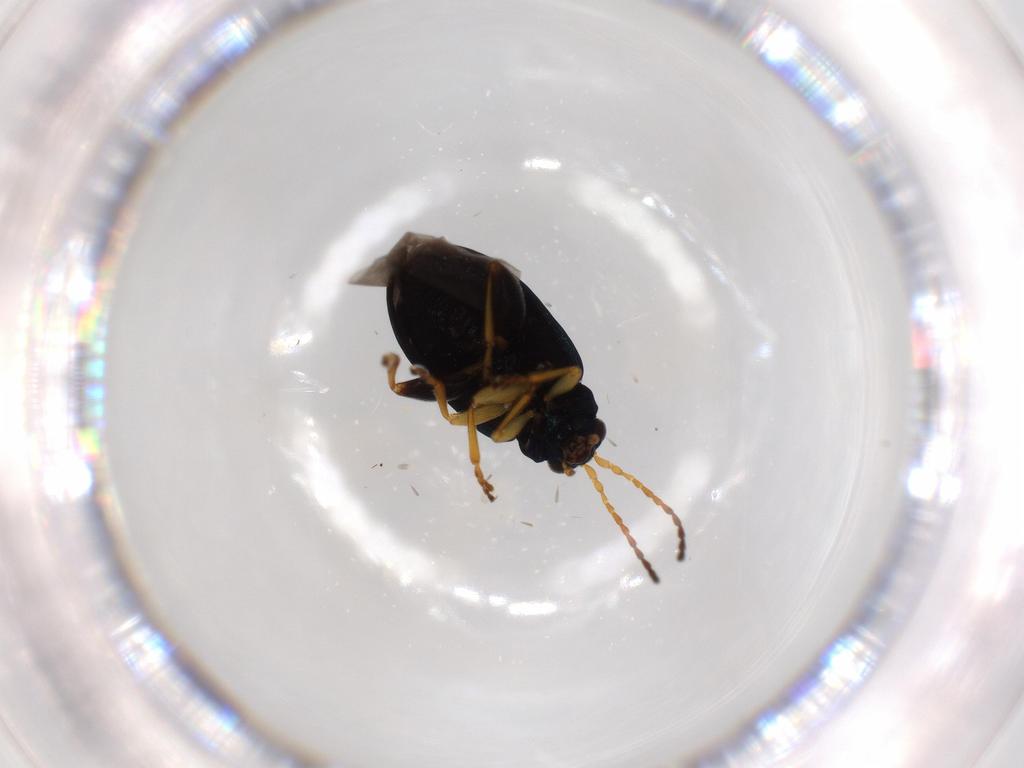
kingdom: Animalia
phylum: Arthropoda
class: Insecta
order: Coleoptera
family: Chrysomelidae
